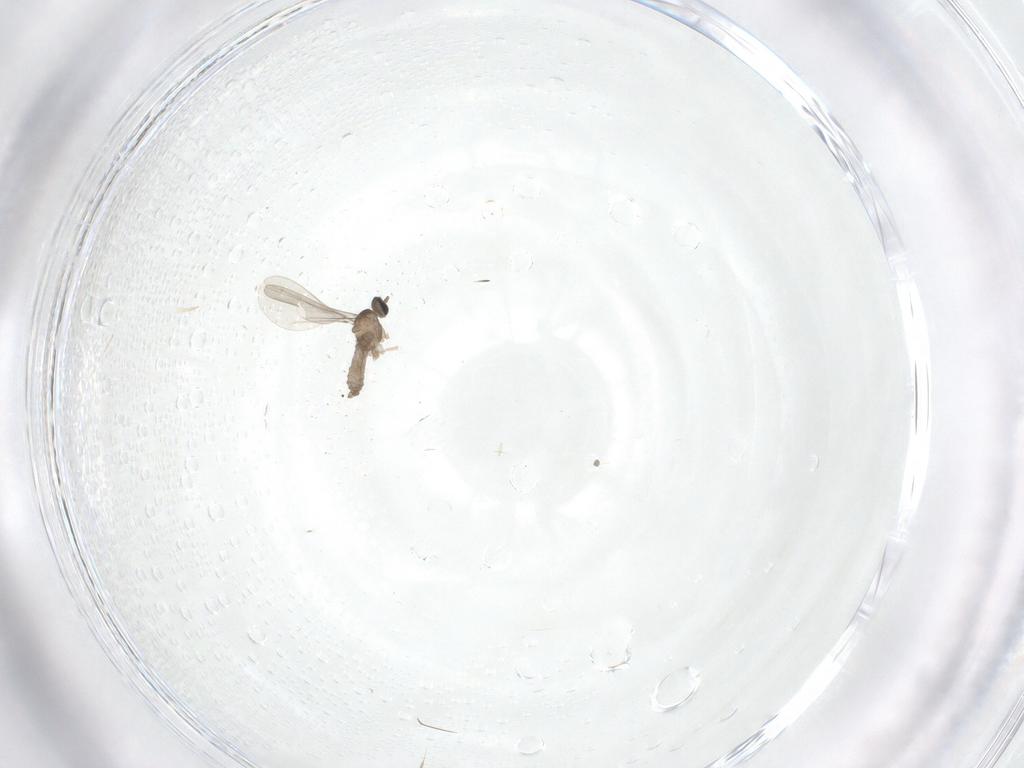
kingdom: Animalia
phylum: Arthropoda
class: Insecta
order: Diptera
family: Cecidomyiidae
